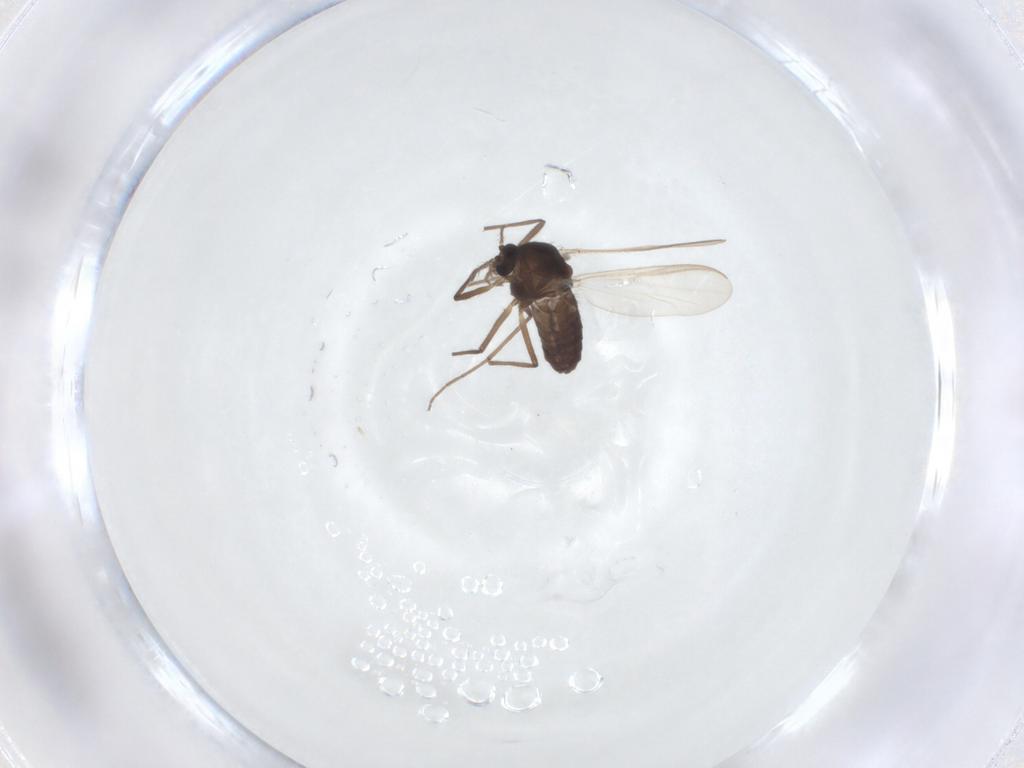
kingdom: Animalia
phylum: Arthropoda
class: Insecta
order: Diptera
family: Chironomidae
